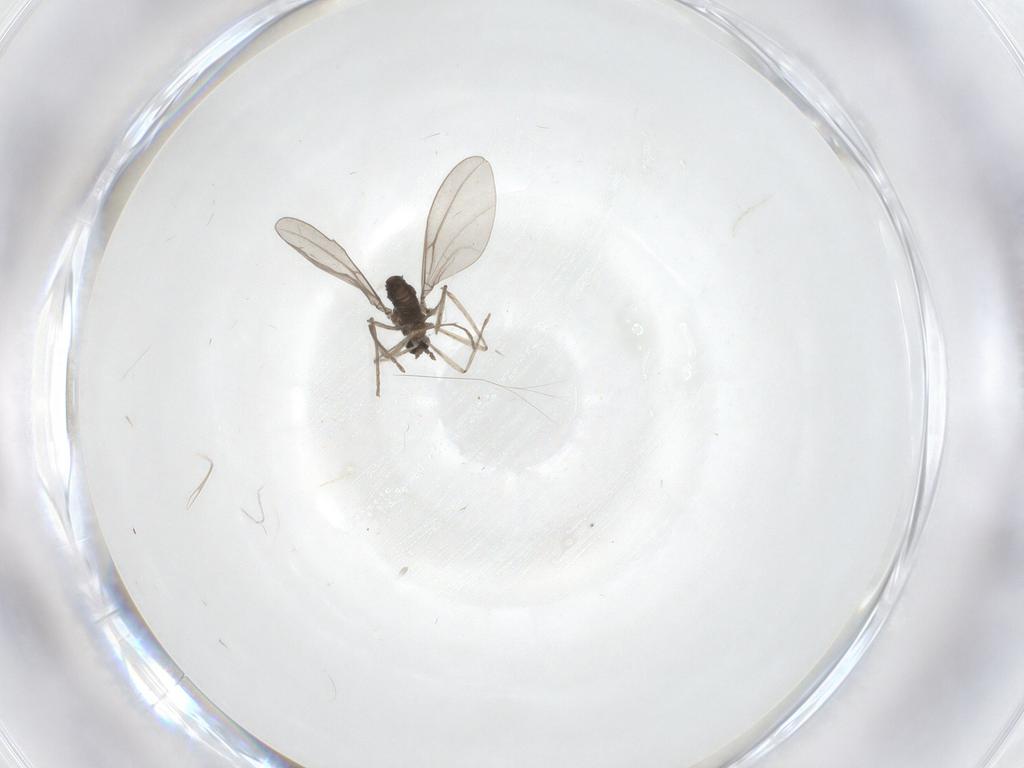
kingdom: Animalia
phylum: Arthropoda
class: Insecta
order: Diptera
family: Cecidomyiidae
